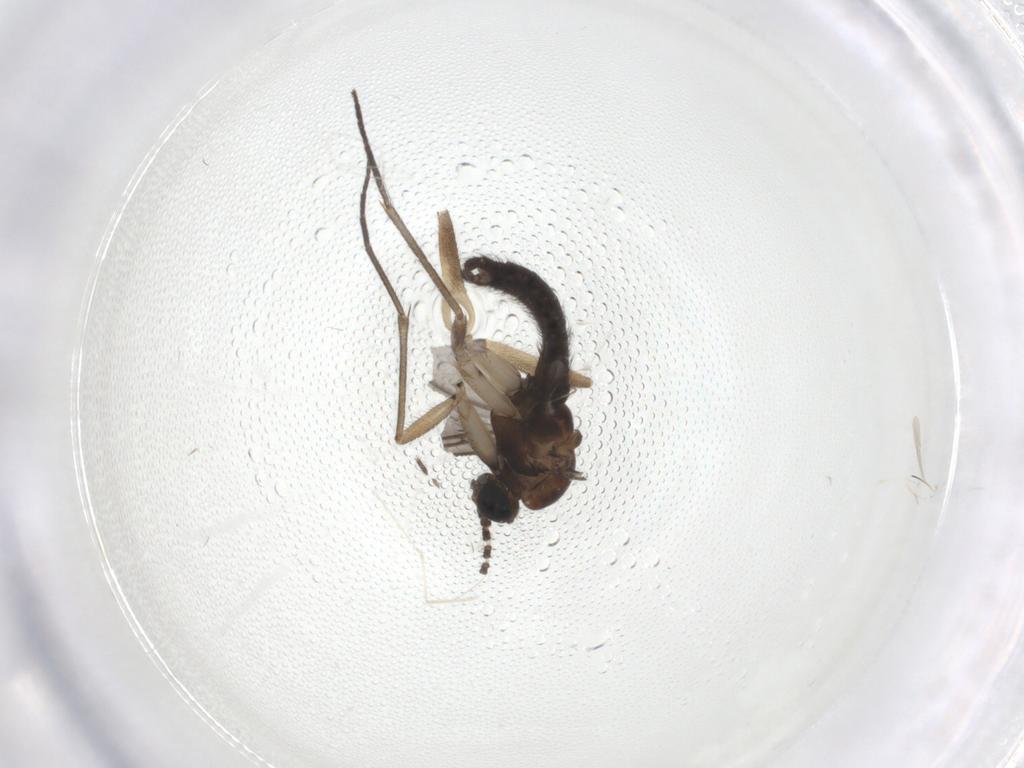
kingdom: Animalia
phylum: Arthropoda
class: Insecta
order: Diptera
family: Sciaridae
